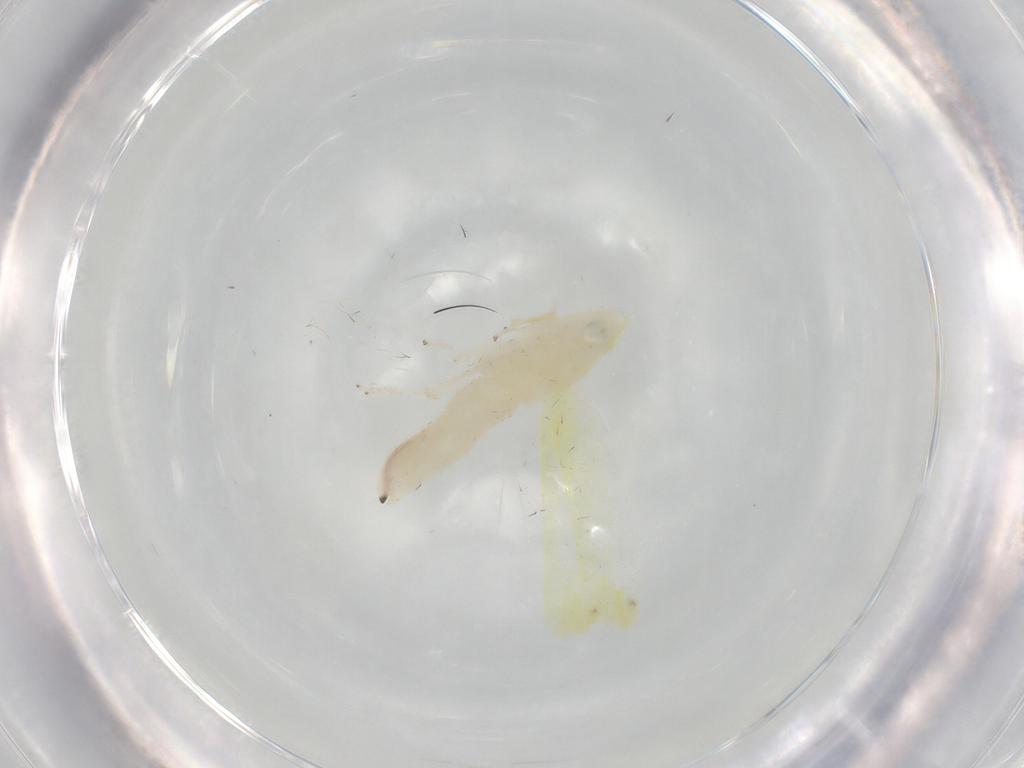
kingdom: Animalia
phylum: Arthropoda
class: Insecta
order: Hemiptera
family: Cicadellidae
